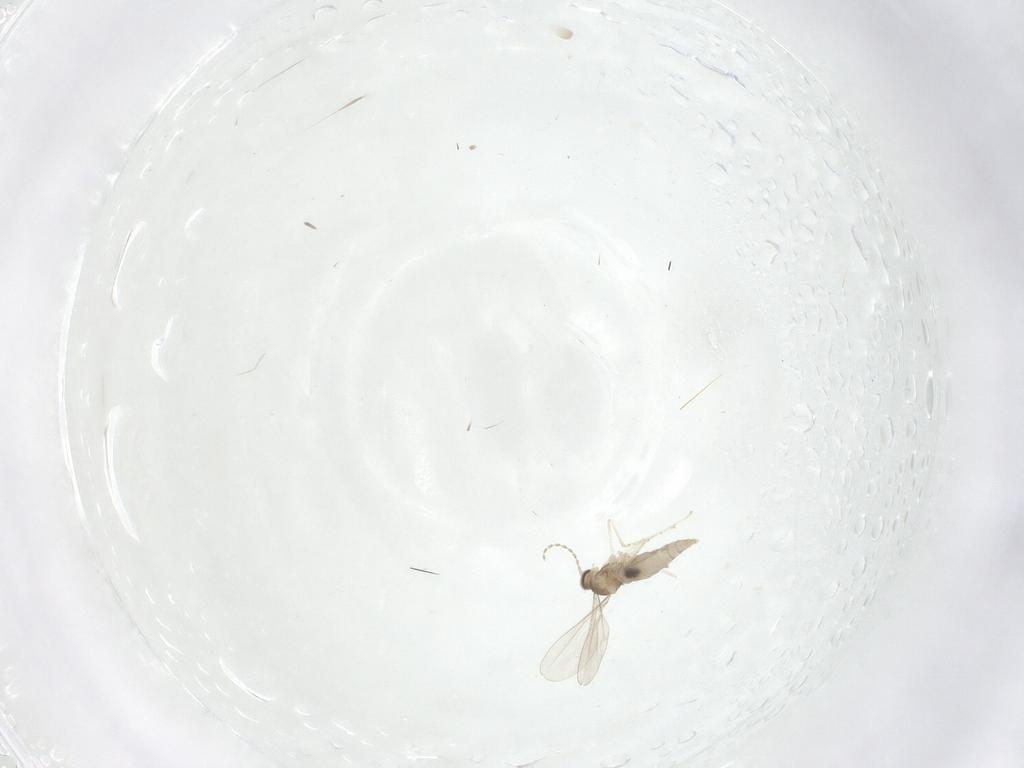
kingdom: Animalia
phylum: Arthropoda
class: Insecta
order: Diptera
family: Cecidomyiidae
